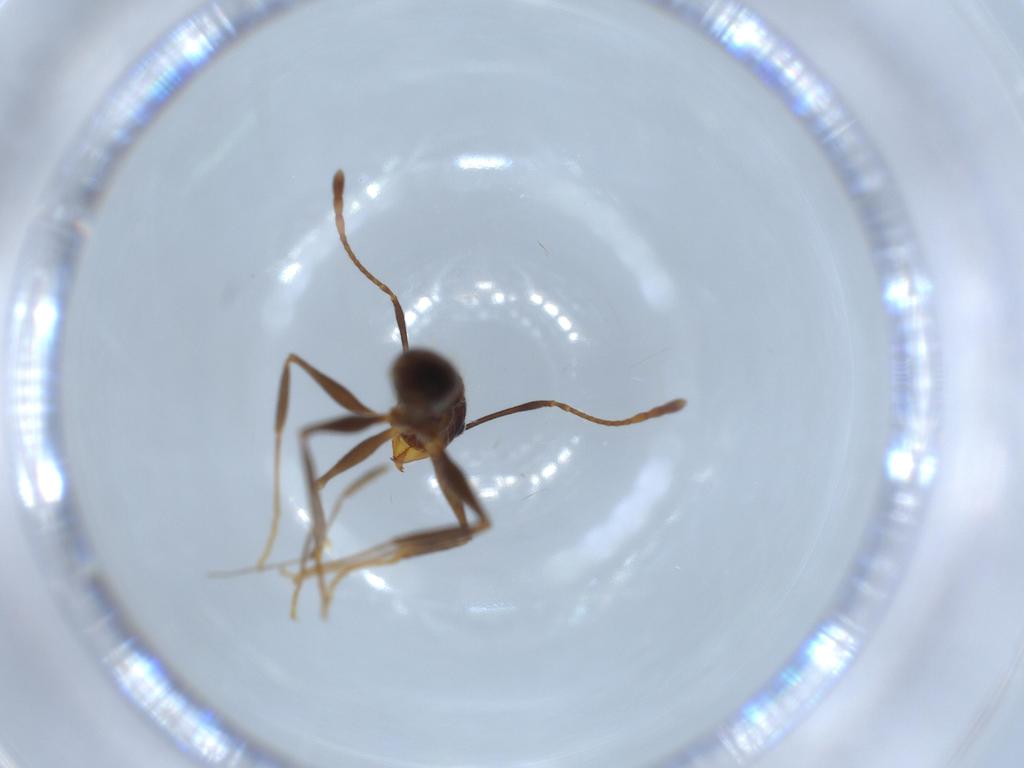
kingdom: Animalia
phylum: Arthropoda
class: Insecta
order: Hymenoptera
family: Formicidae
